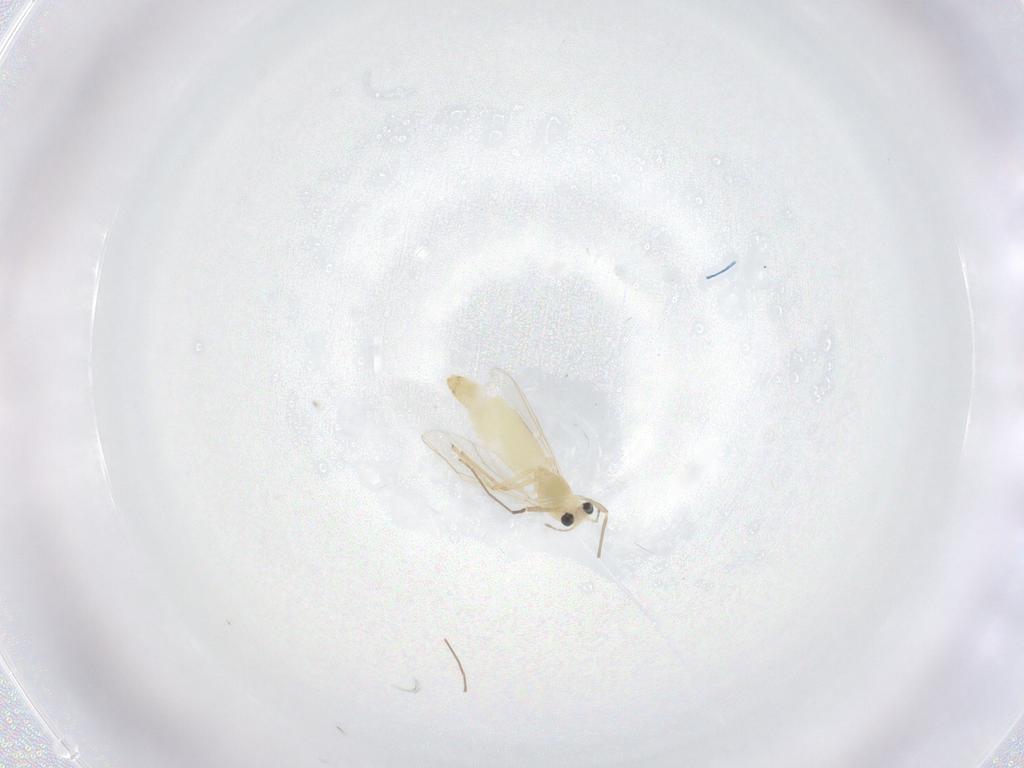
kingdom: Animalia
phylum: Arthropoda
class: Insecta
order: Diptera
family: Chironomidae
